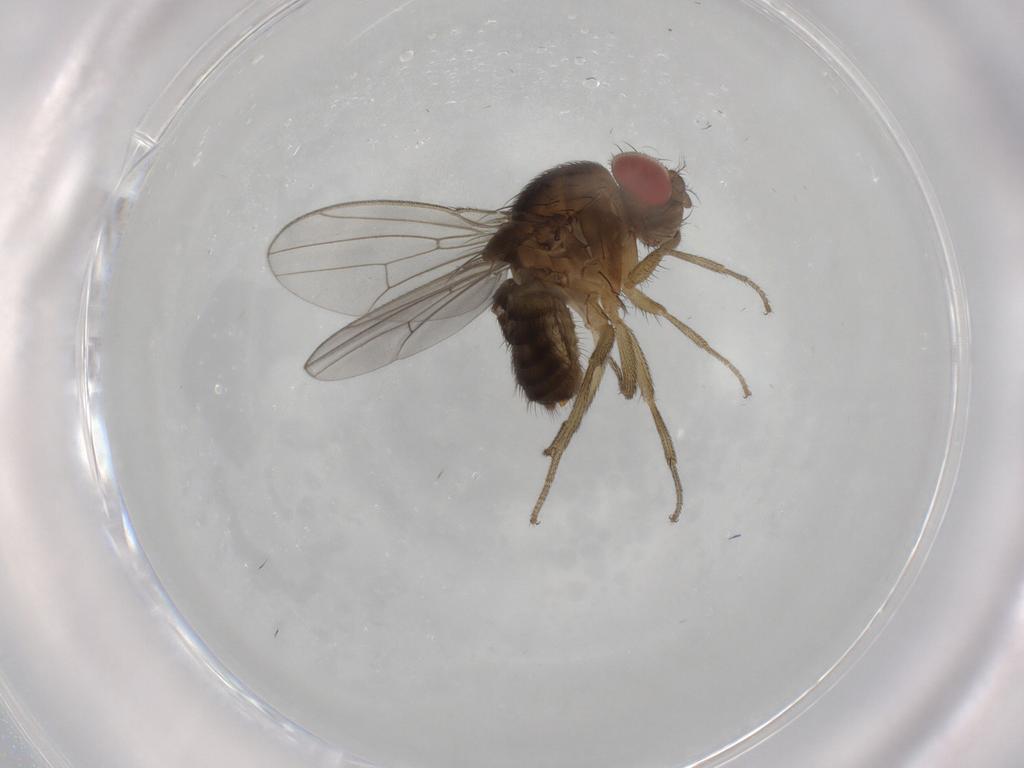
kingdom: Animalia
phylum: Arthropoda
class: Insecta
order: Diptera
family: Drosophilidae
